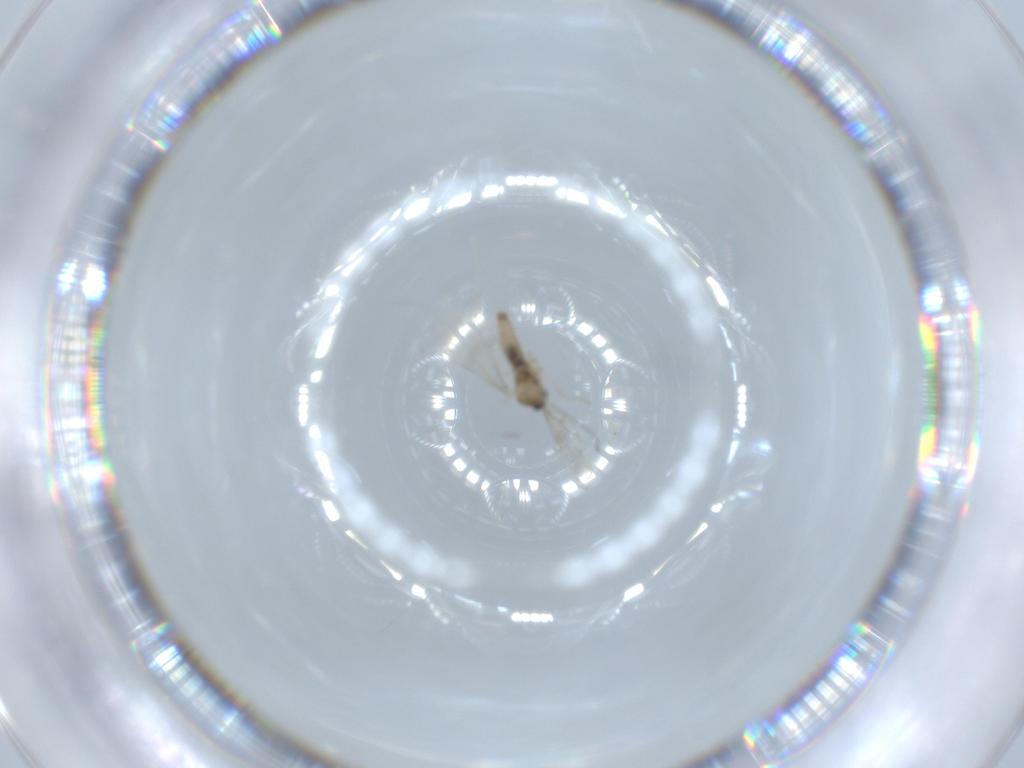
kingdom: Animalia
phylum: Arthropoda
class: Insecta
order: Diptera
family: Cecidomyiidae
